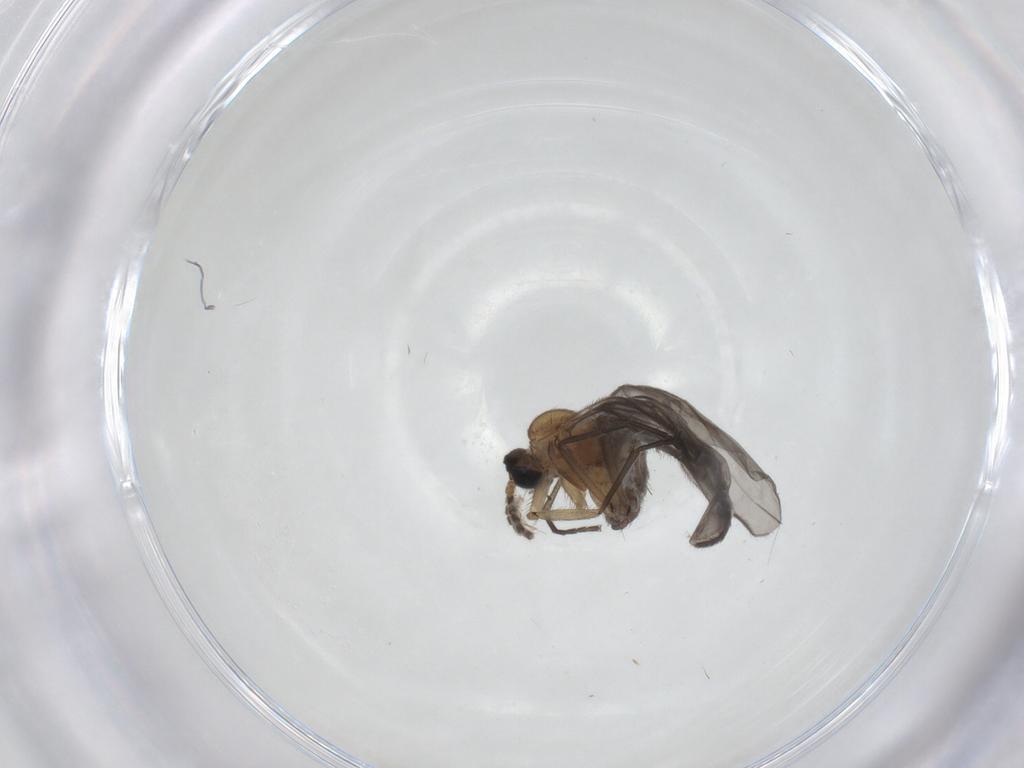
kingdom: Animalia
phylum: Arthropoda
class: Insecta
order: Diptera
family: Sciaridae
